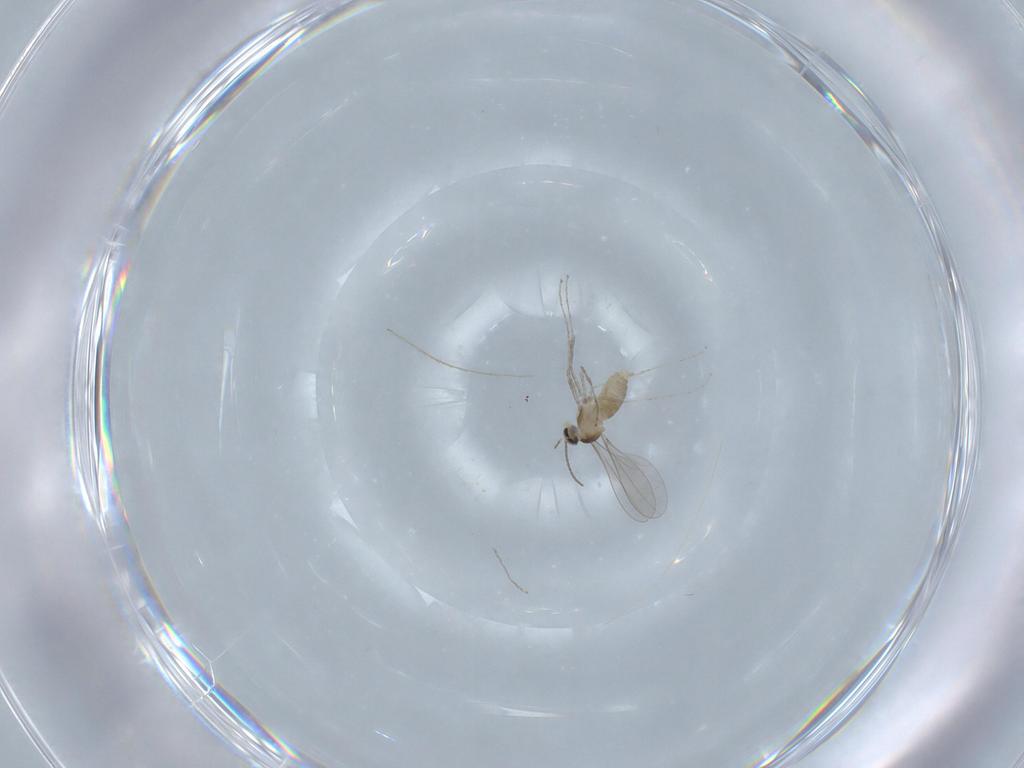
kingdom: Animalia
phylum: Arthropoda
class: Insecta
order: Diptera
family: Cecidomyiidae
